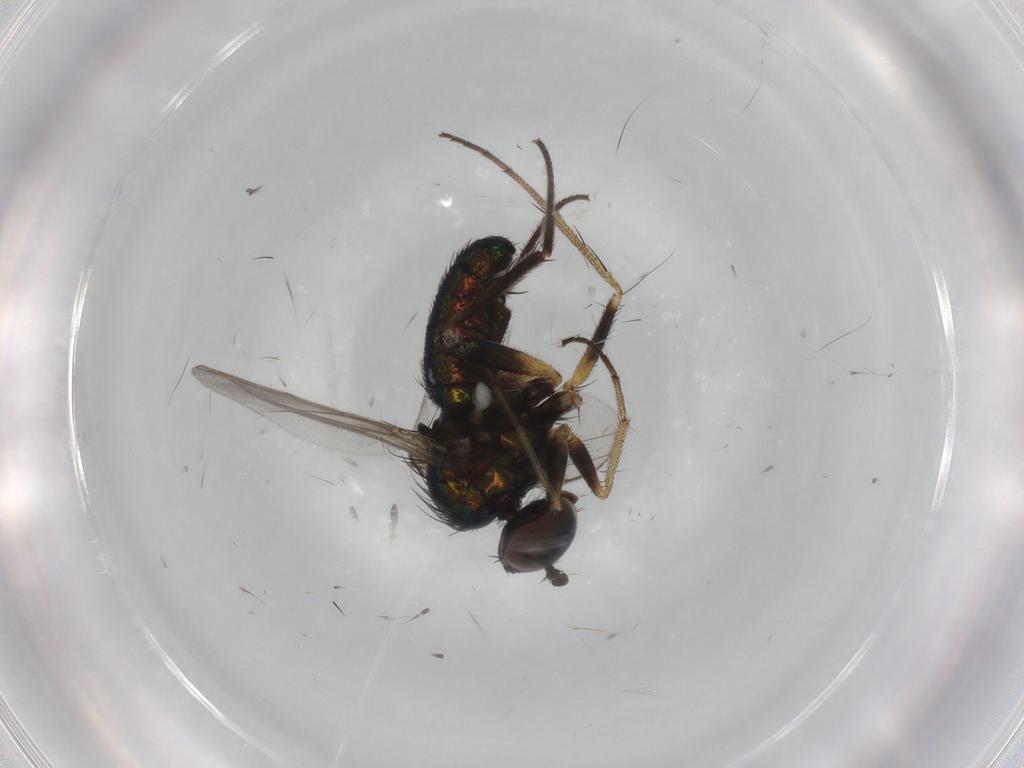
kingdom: Animalia
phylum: Arthropoda
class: Insecta
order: Diptera
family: Dolichopodidae
